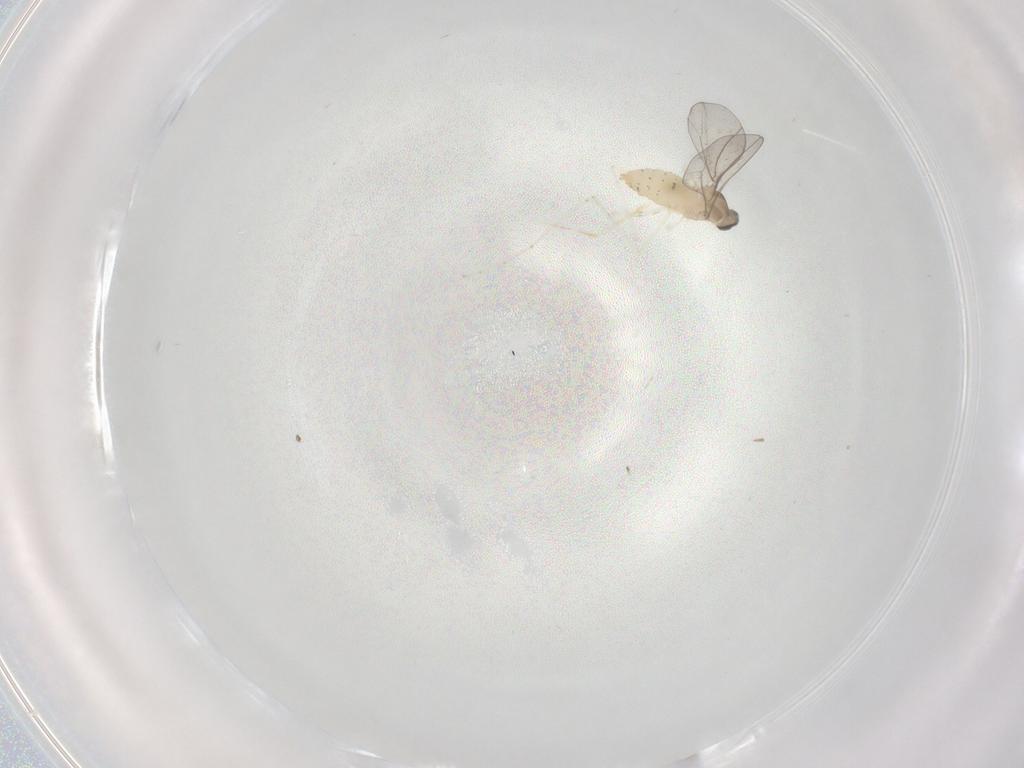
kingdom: Animalia
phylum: Arthropoda
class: Insecta
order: Diptera
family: Cecidomyiidae
